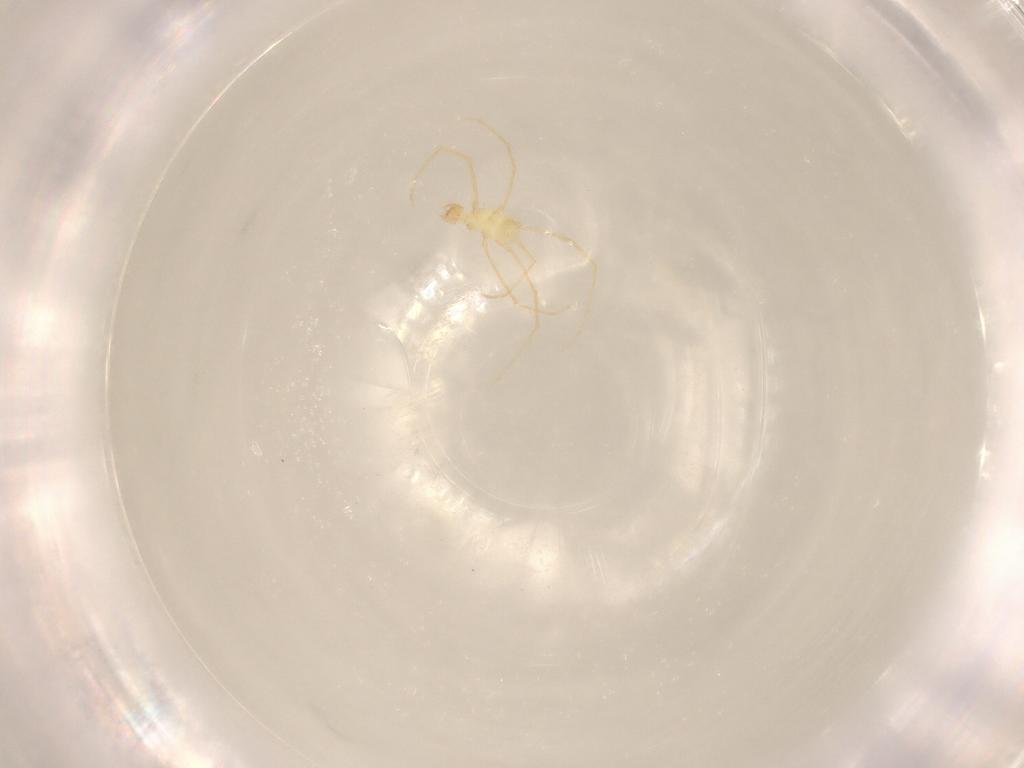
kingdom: Animalia
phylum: Arthropoda
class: Arachnida
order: Trombidiformes
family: Erythraeidae
